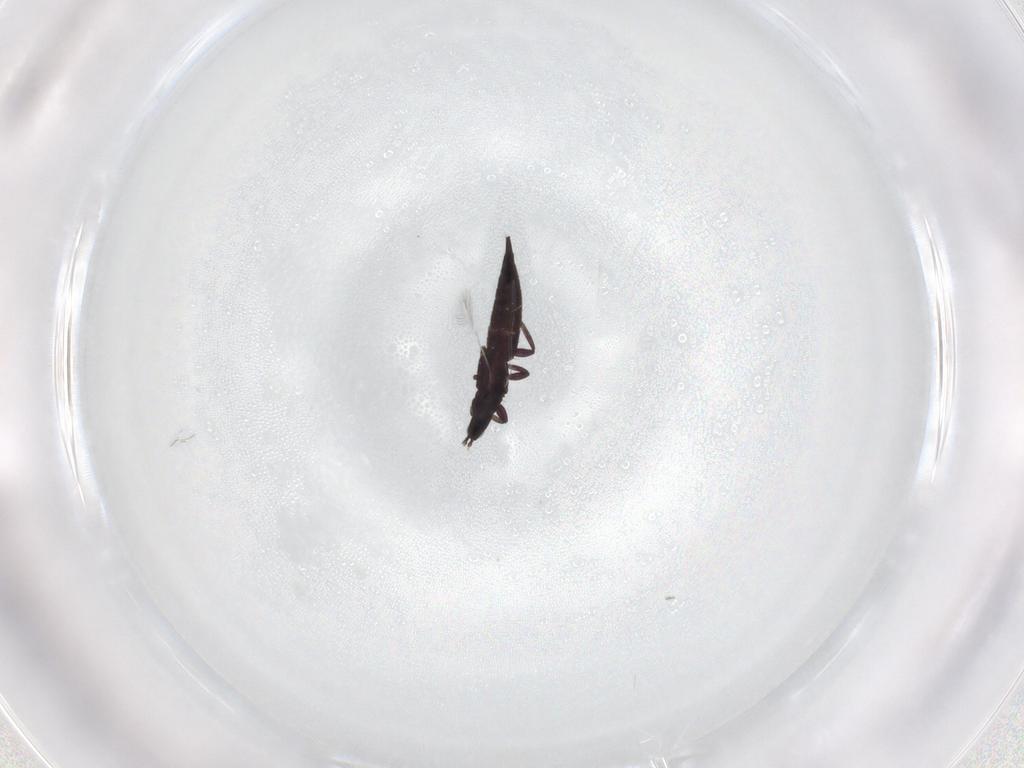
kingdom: Animalia
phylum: Arthropoda
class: Insecta
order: Thysanoptera
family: Phlaeothripidae
